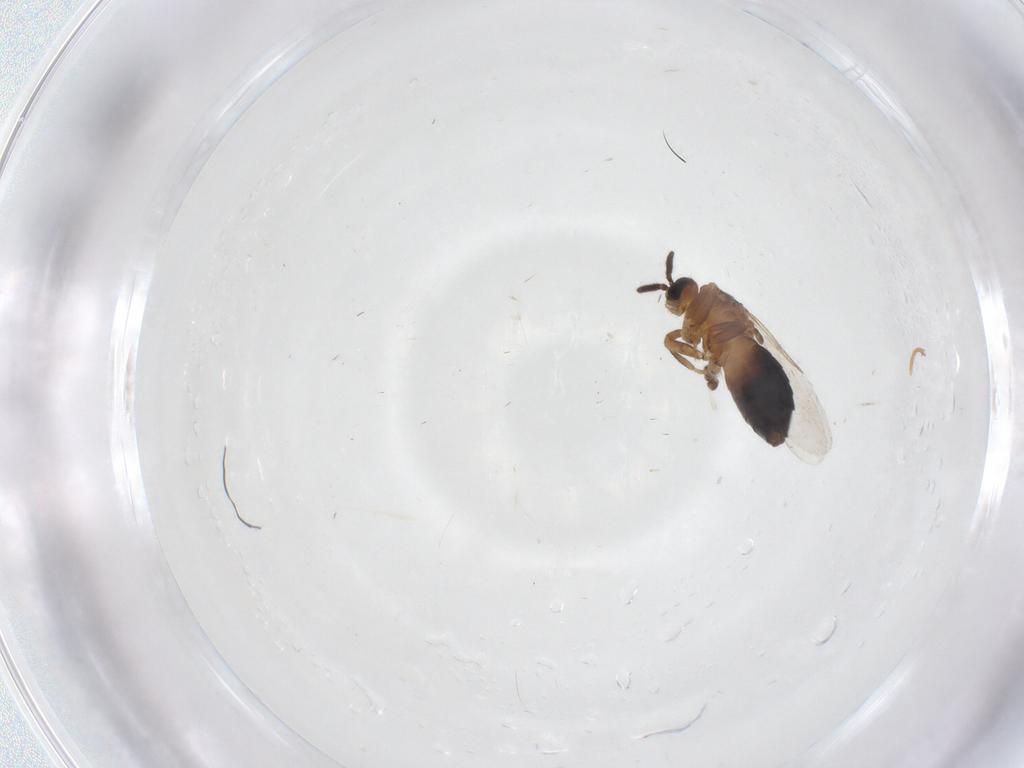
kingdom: Animalia
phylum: Arthropoda
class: Insecta
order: Diptera
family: Scatopsidae
